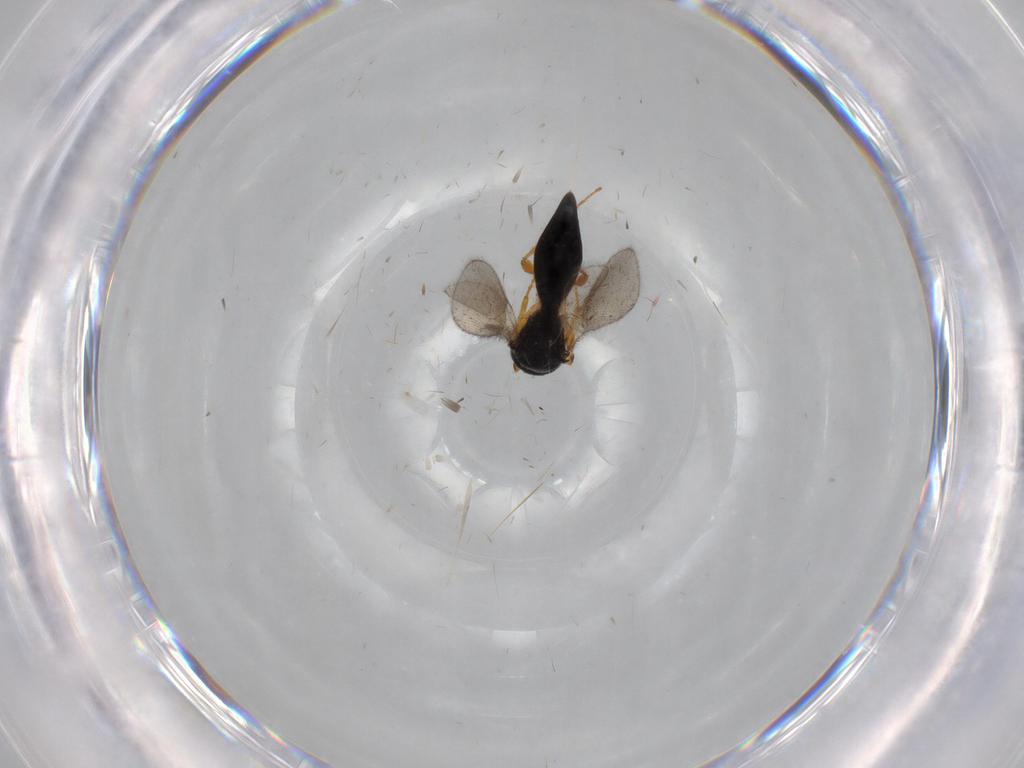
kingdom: Animalia
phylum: Arthropoda
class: Insecta
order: Hymenoptera
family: Platygastridae
